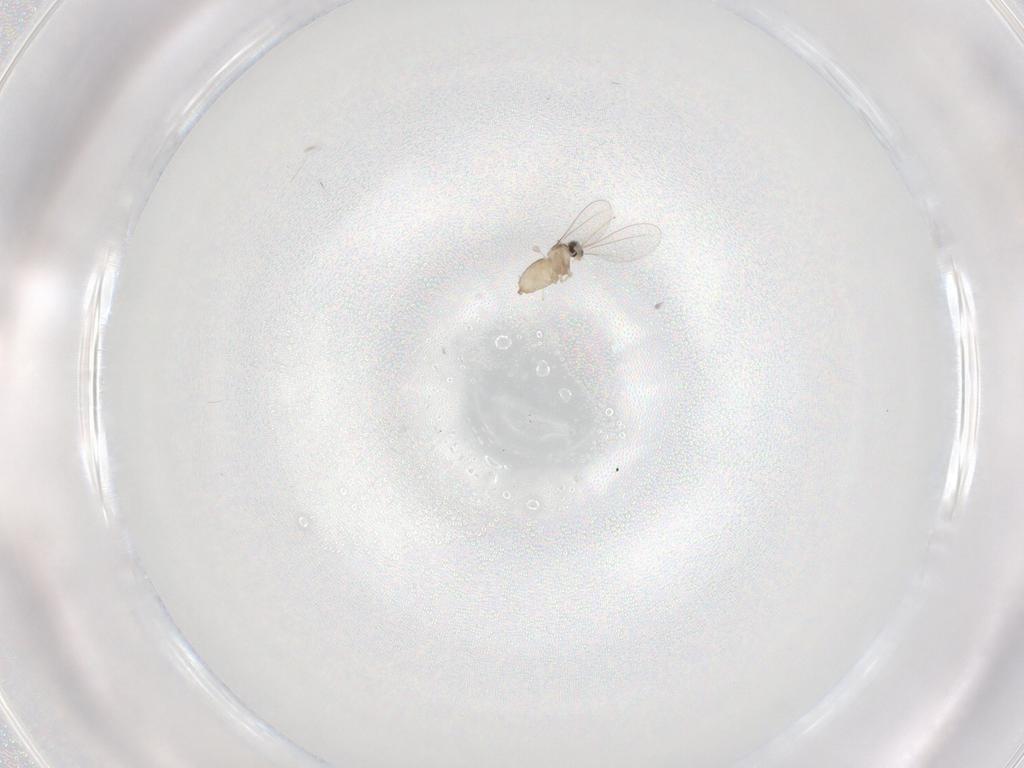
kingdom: Animalia
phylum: Arthropoda
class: Insecta
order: Diptera
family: Cecidomyiidae
